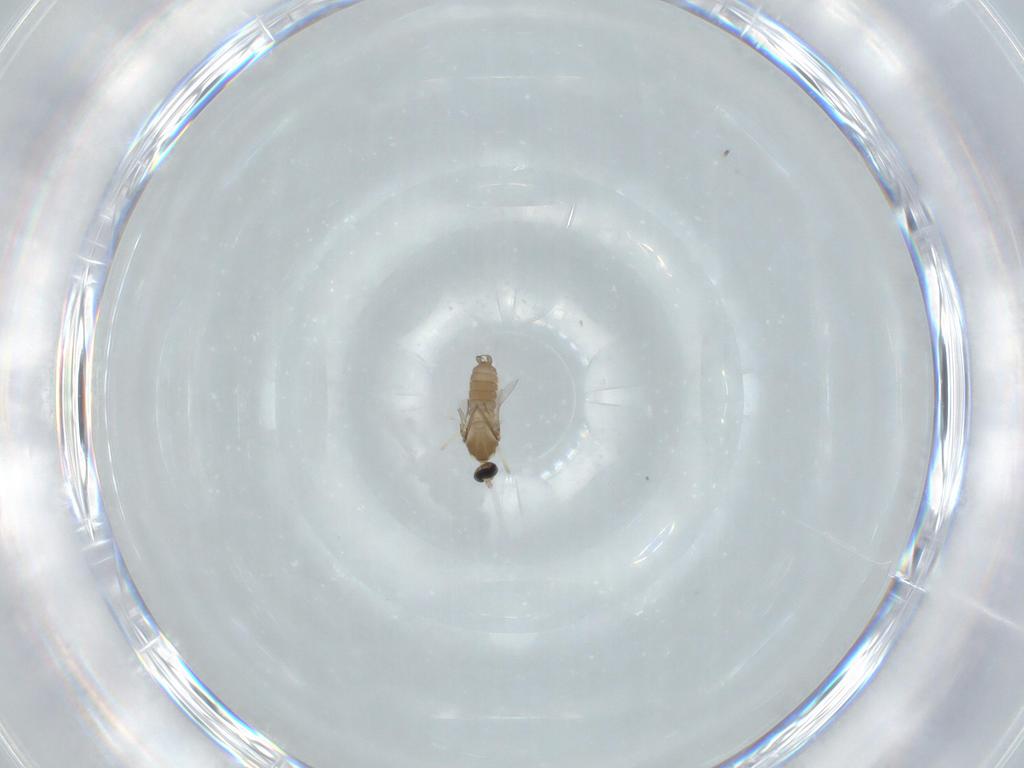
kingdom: Animalia
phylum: Arthropoda
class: Insecta
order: Diptera
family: Cecidomyiidae
